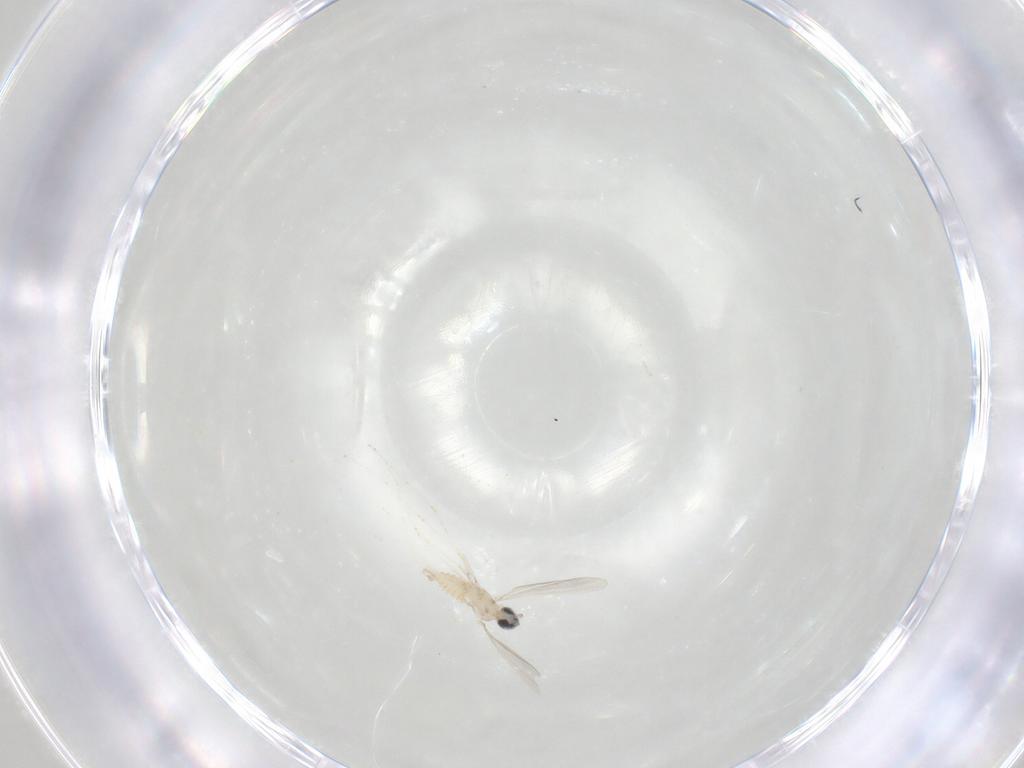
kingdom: Animalia
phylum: Arthropoda
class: Insecta
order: Diptera
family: Cecidomyiidae
